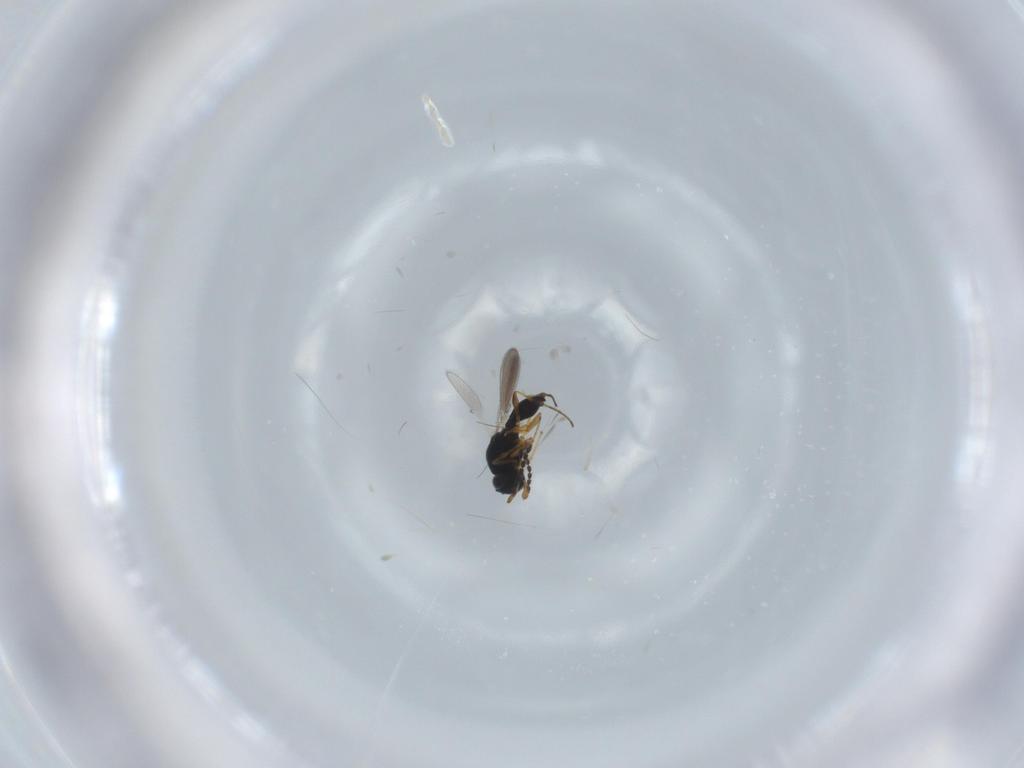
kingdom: Animalia
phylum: Arthropoda
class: Insecta
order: Hymenoptera
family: Platygastridae
